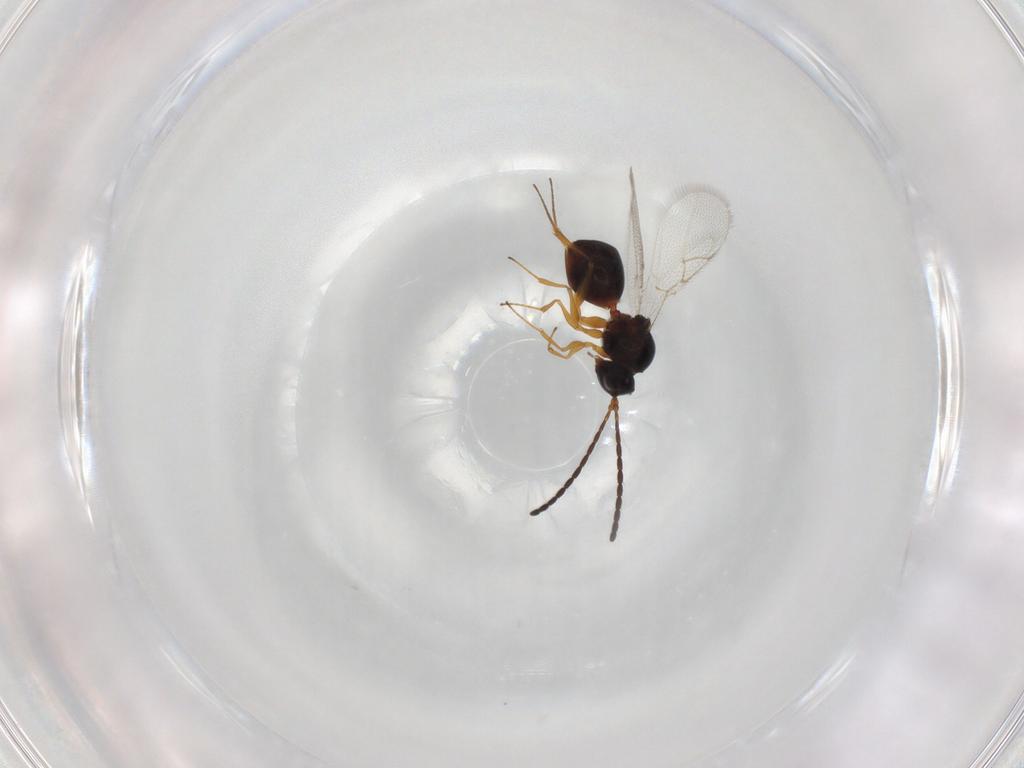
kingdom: Animalia
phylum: Arthropoda
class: Insecta
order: Hymenoptera
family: Figitidae
